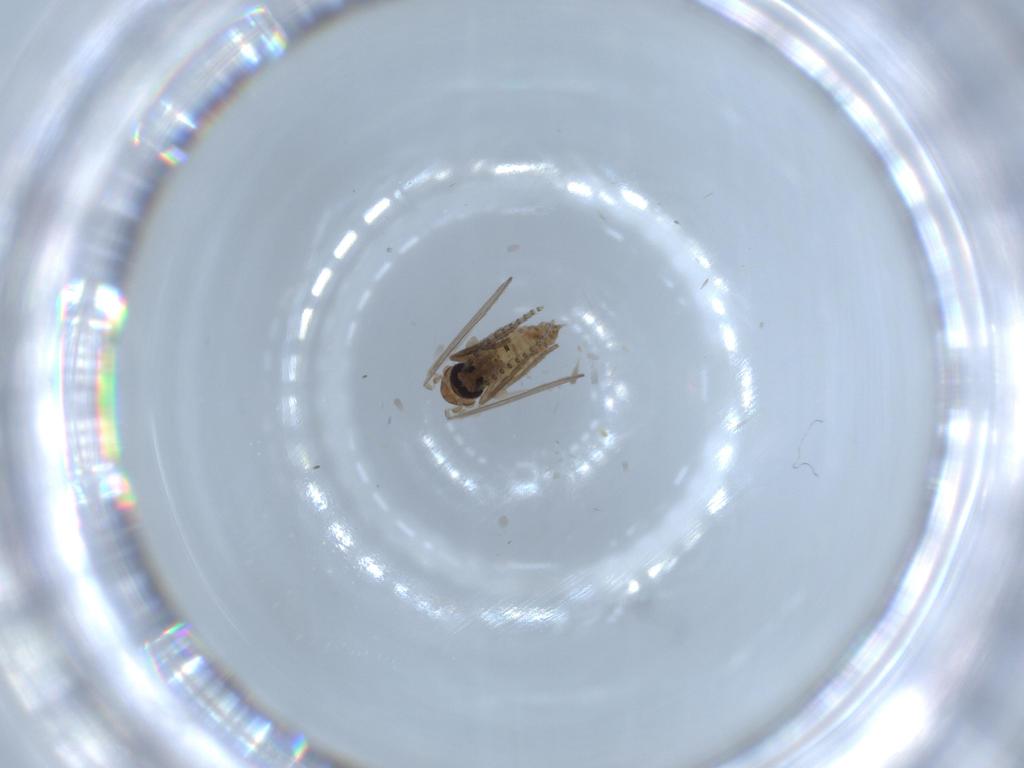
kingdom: Animalia
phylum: Arthropoda
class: Insecta
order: Diptera
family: Psychodidae
